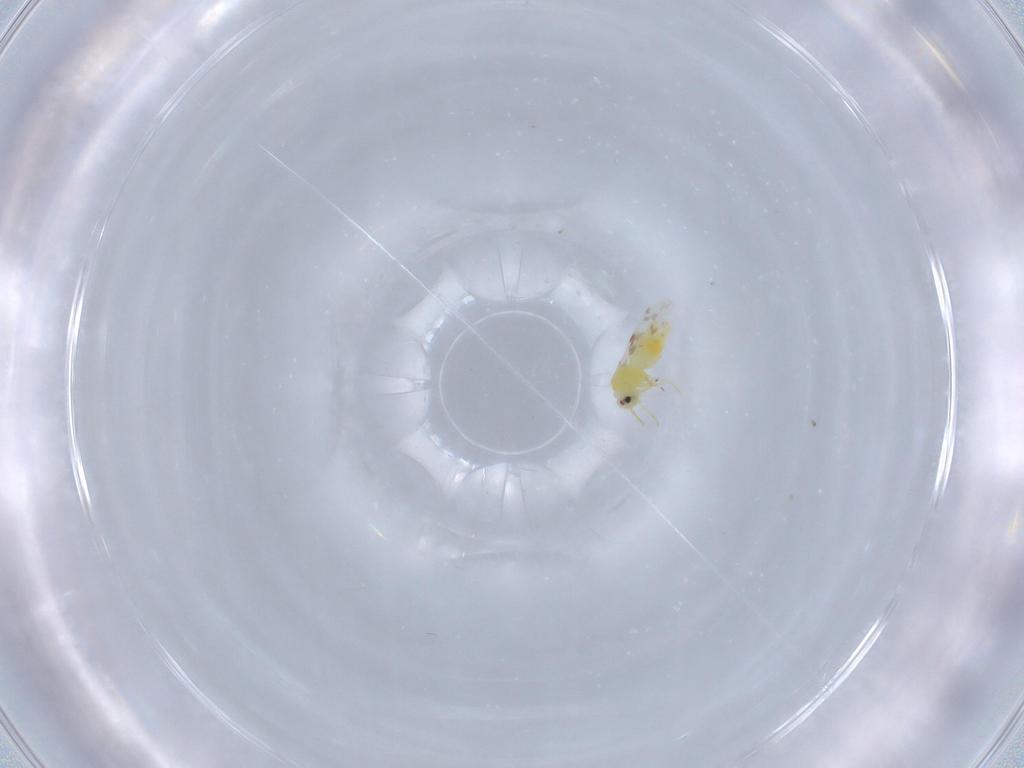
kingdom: Animalia
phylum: Arthropoda
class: Insecta
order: Hemiptera
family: Aleyrodidae
